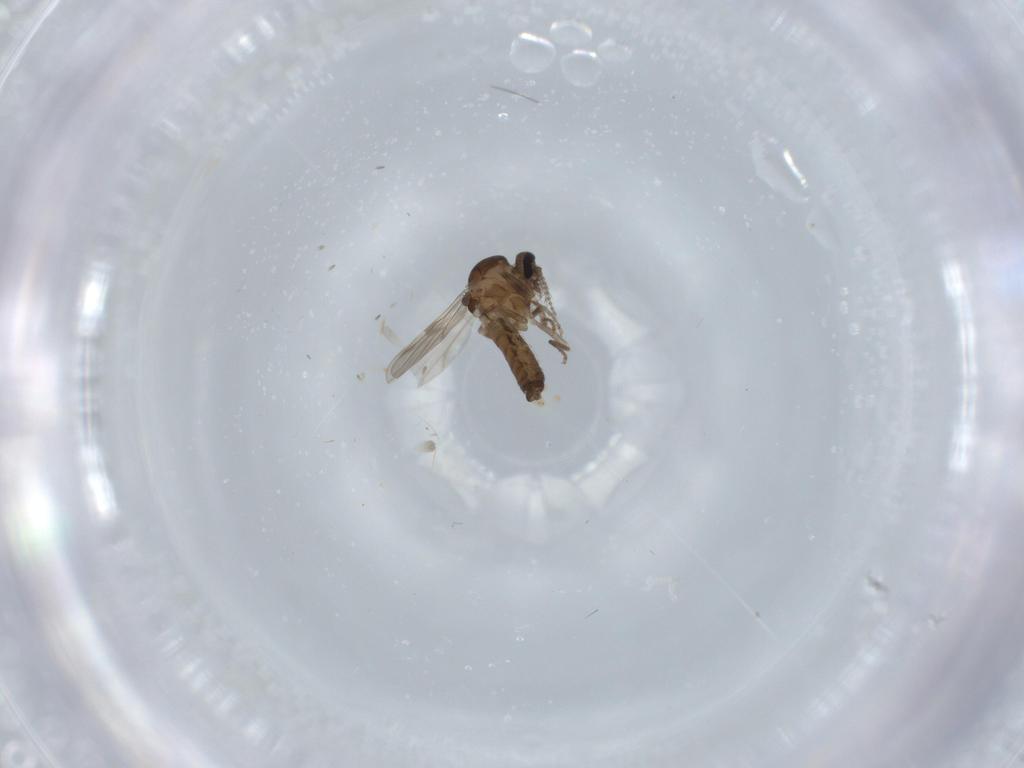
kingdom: Animalia
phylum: Arthropoda
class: Insecta
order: Diptera
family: Ceratopogonidae
